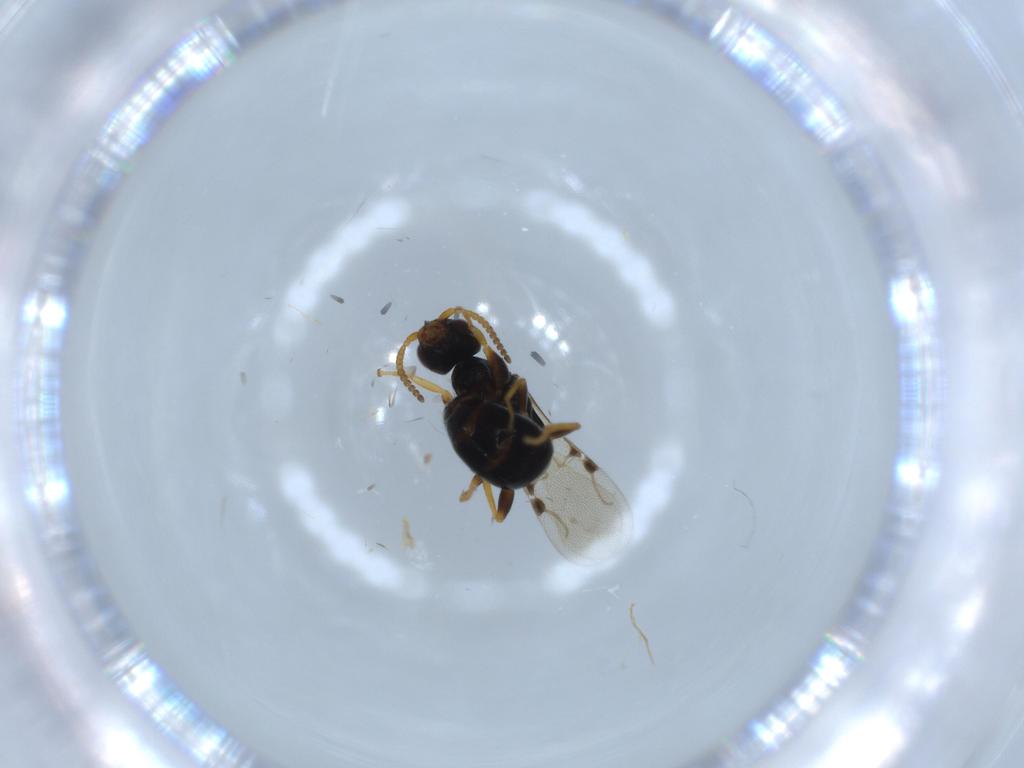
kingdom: Animalia
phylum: Arthropoda
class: Insecta
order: Hymenoptera
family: Bethylidae
